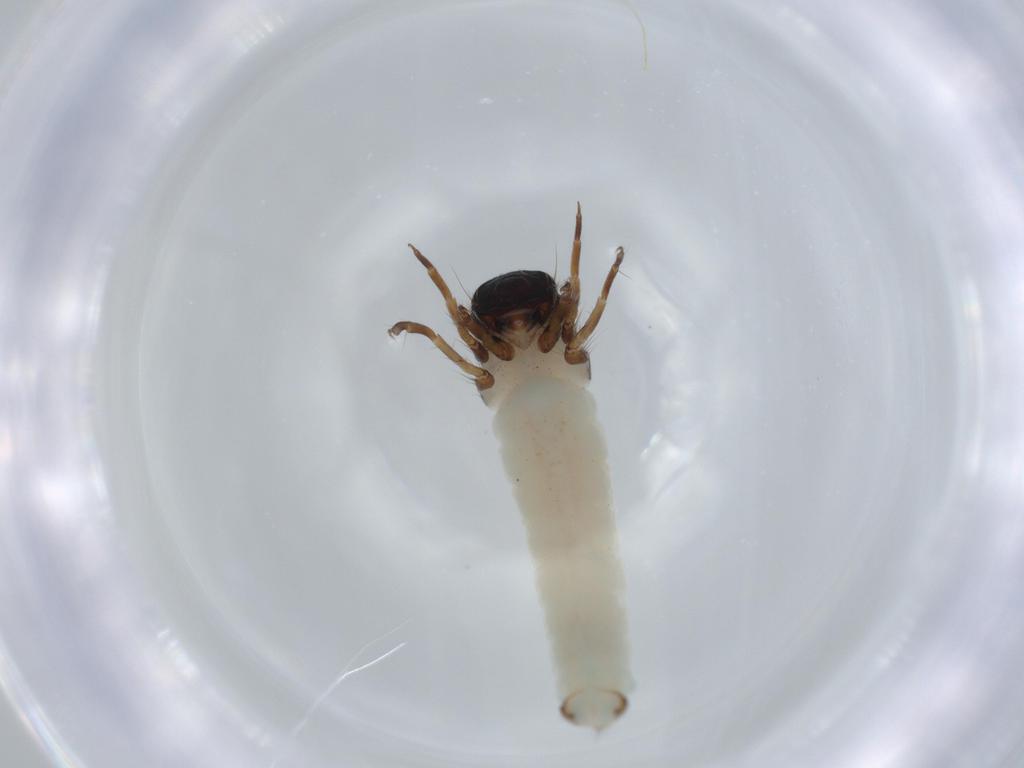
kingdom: Animalia
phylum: Arthropoda
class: Insecta
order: Trichoptera
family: Brachycentridae
